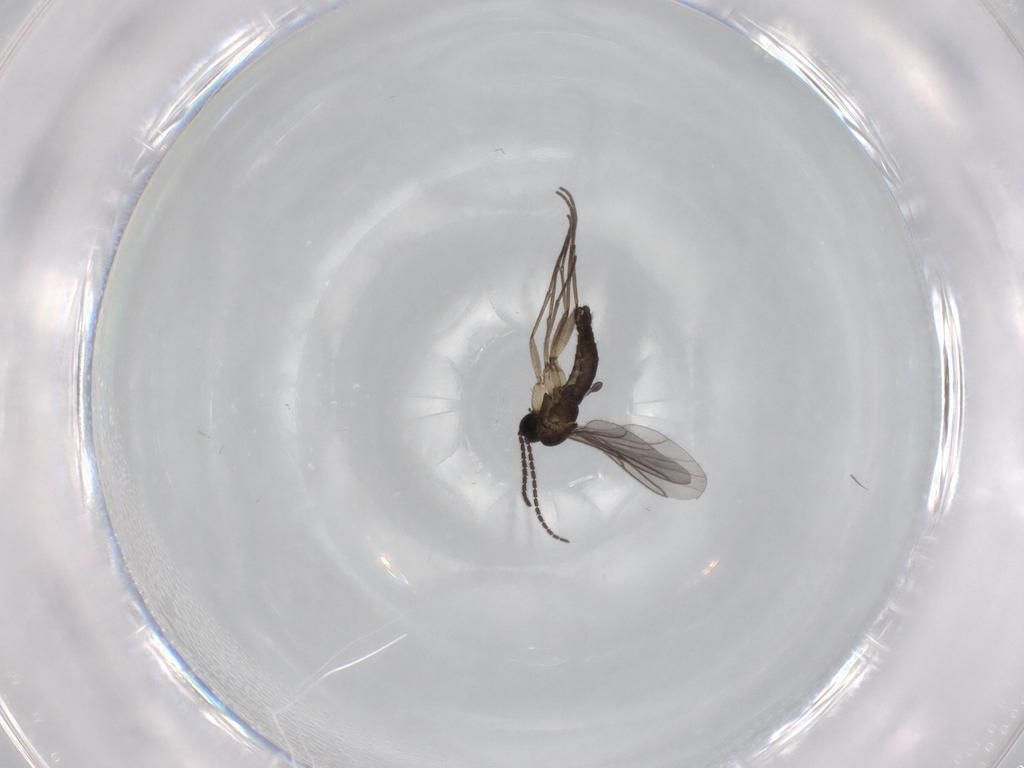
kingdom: Animalia
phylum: Arthropoda
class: Insecta
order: Diptera
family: Sciaridae
